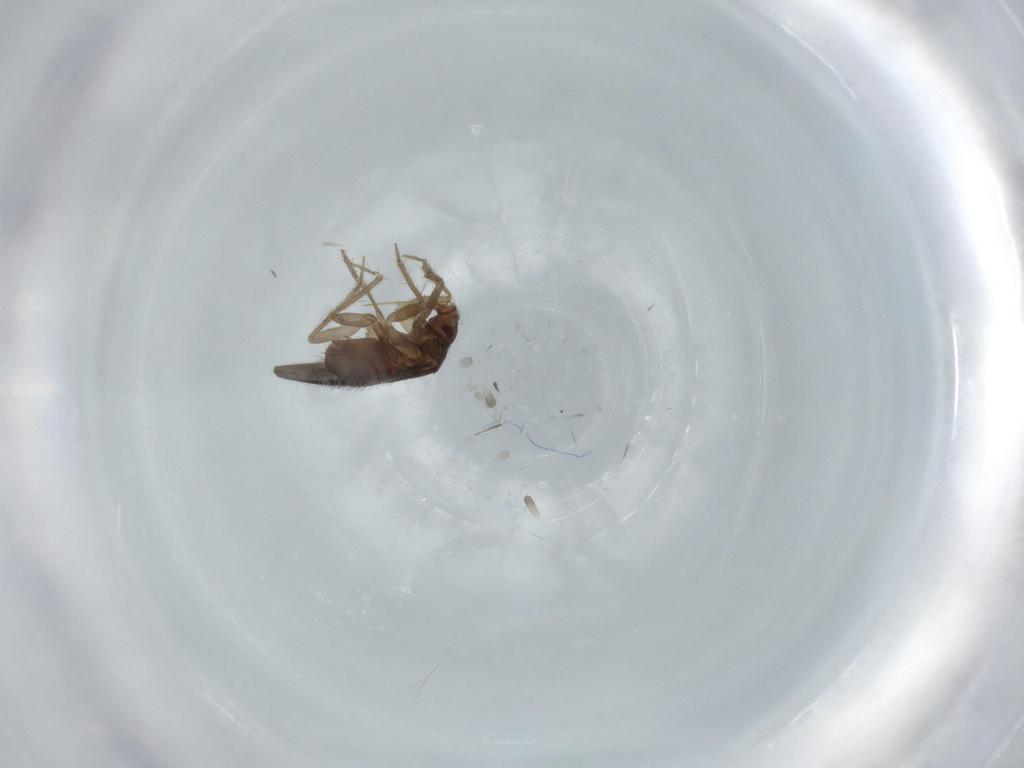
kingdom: Animalia
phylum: Arthropoda
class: Insecta
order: Hemiptera
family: Ceratocombidae
